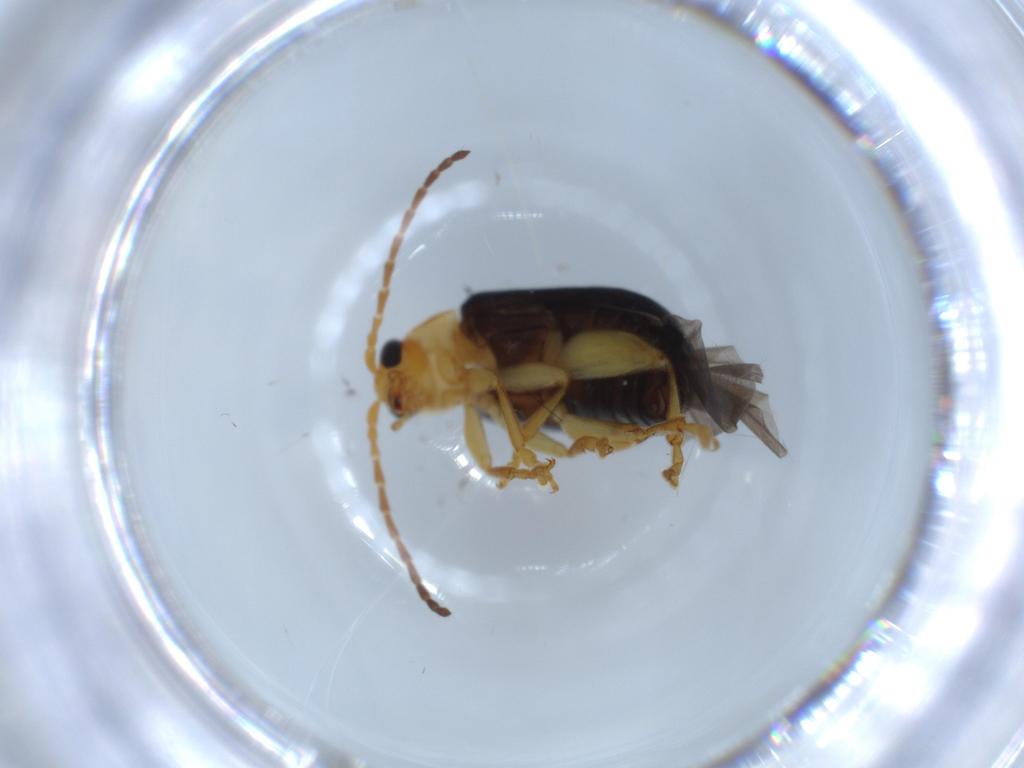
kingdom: Animalia
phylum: Arthropoda
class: Insecta
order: Coleoptera
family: Chrysomelidae
